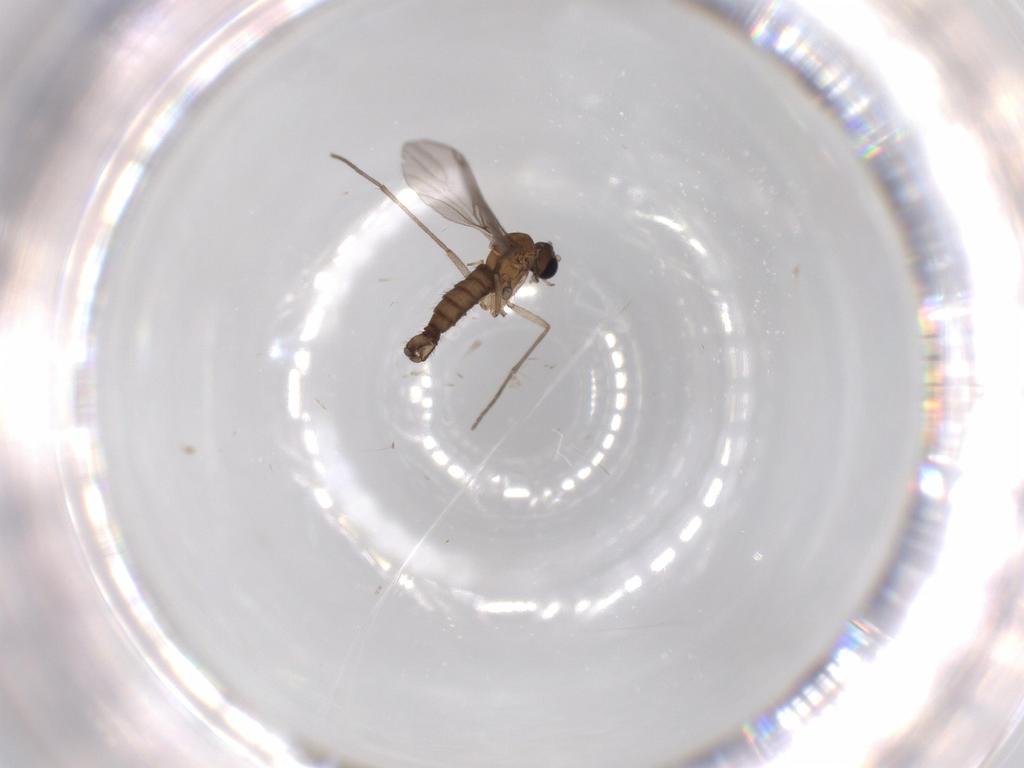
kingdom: Animalia
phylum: Arthropoda
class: Insecta
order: Diptera
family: Sciaridae
